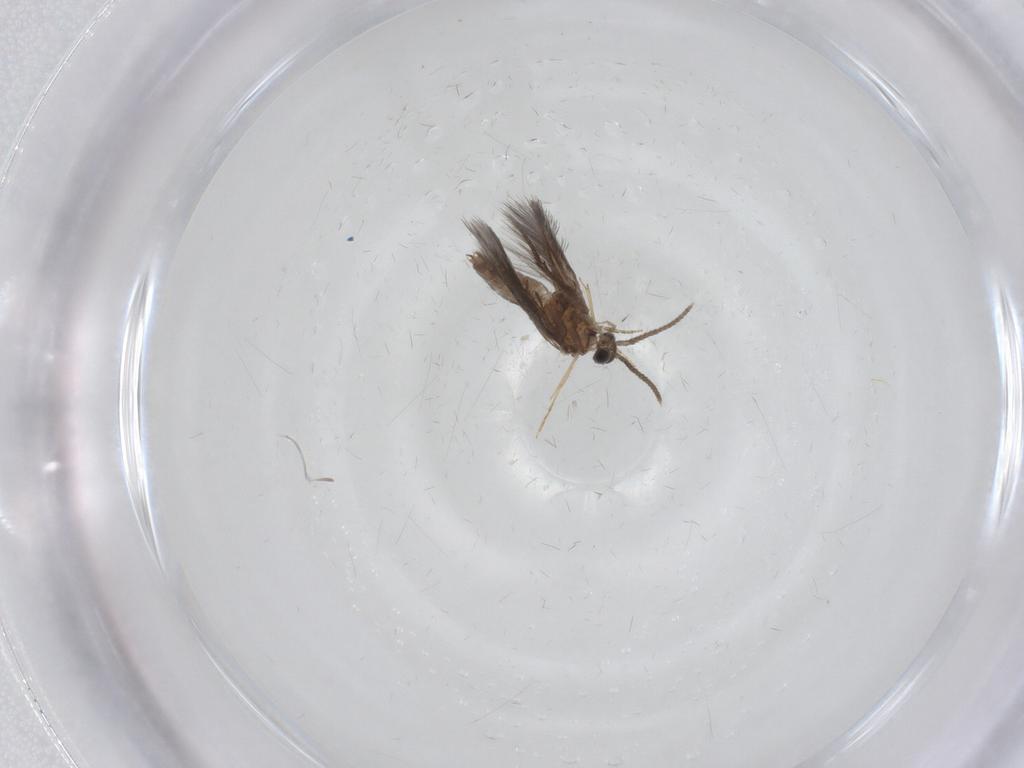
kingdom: Animalia
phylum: Arthropoda
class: Insecta
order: Trichoptera
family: Hydroptilidae
